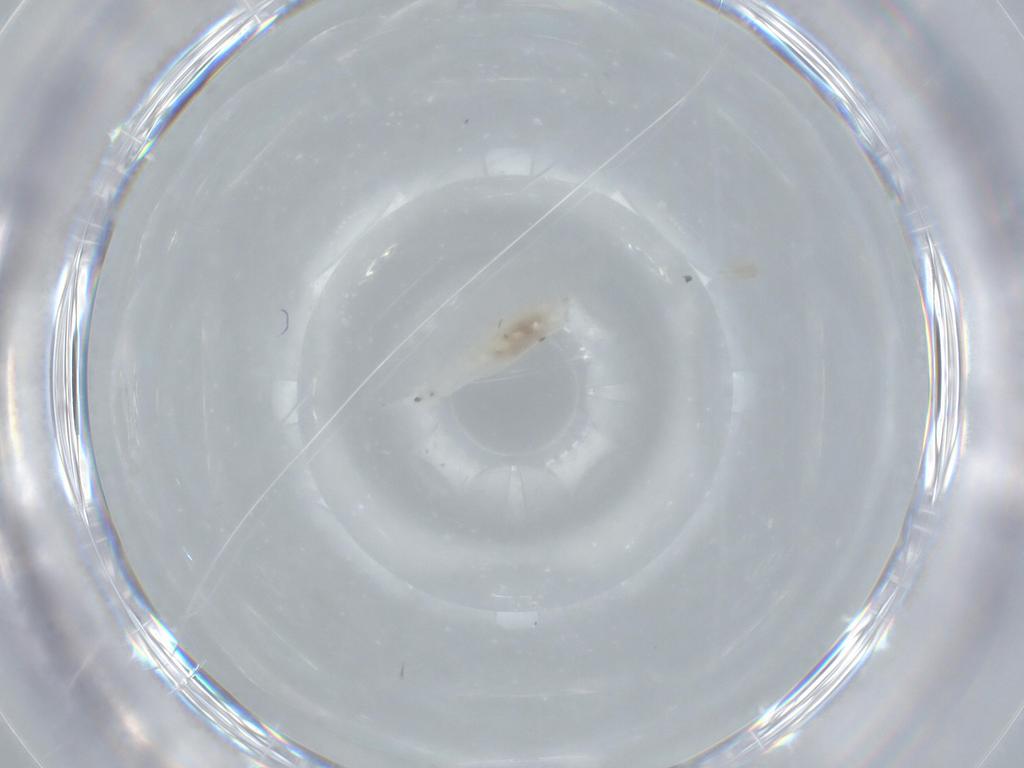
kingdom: Animalia
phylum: Arthropoda
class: Insecta
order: Diptera
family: Cecidomyiidae
